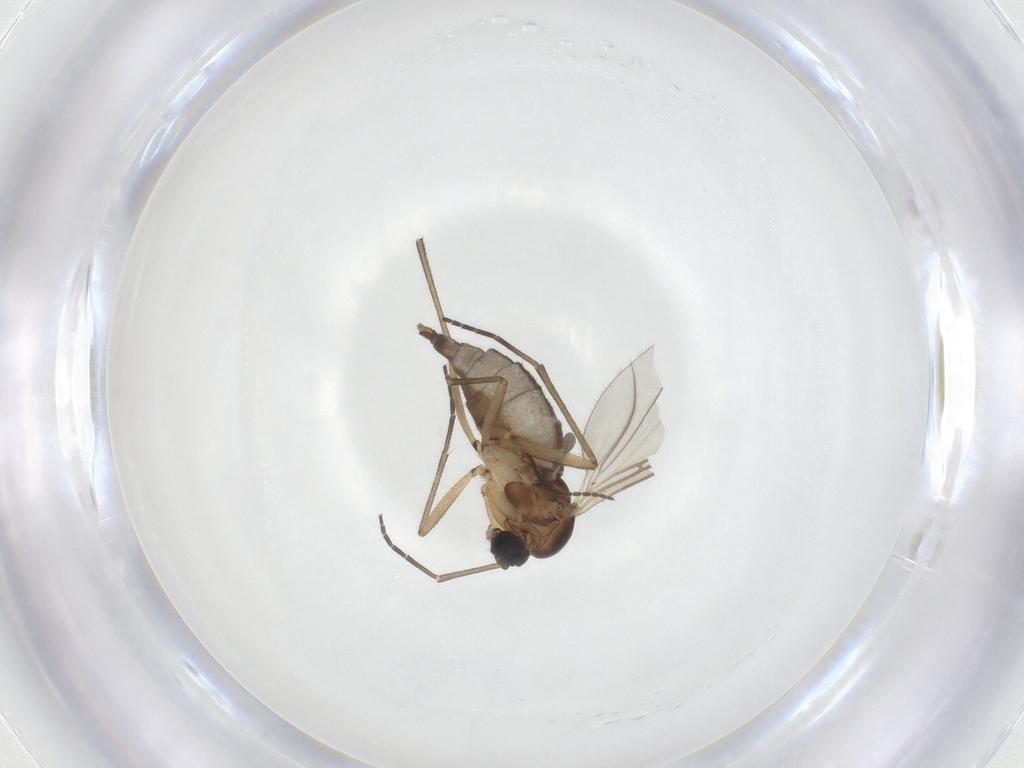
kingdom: Animalia
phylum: Arthropoda
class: Insecta
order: Diptera
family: Sciaridae
